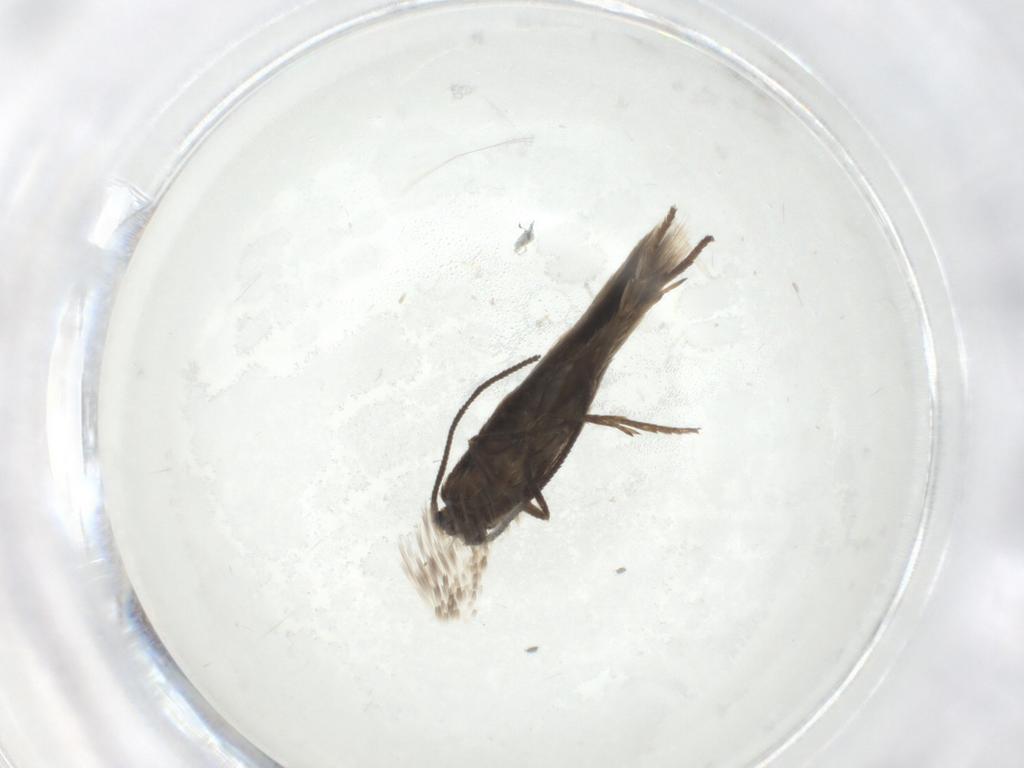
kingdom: Animalia
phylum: Arthropoda
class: Insecta
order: Lepidoptera
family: Nepticulidae
